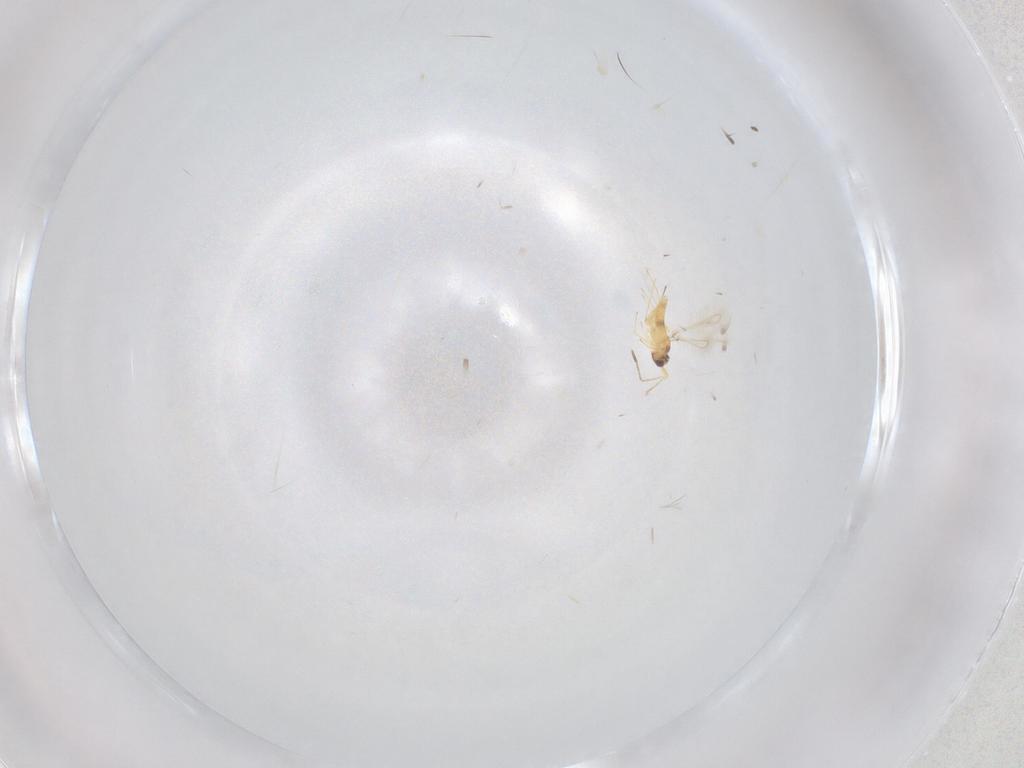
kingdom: Animalia
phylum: Arthropoda
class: Insecta
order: Hymenoptera
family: Mymaridae
